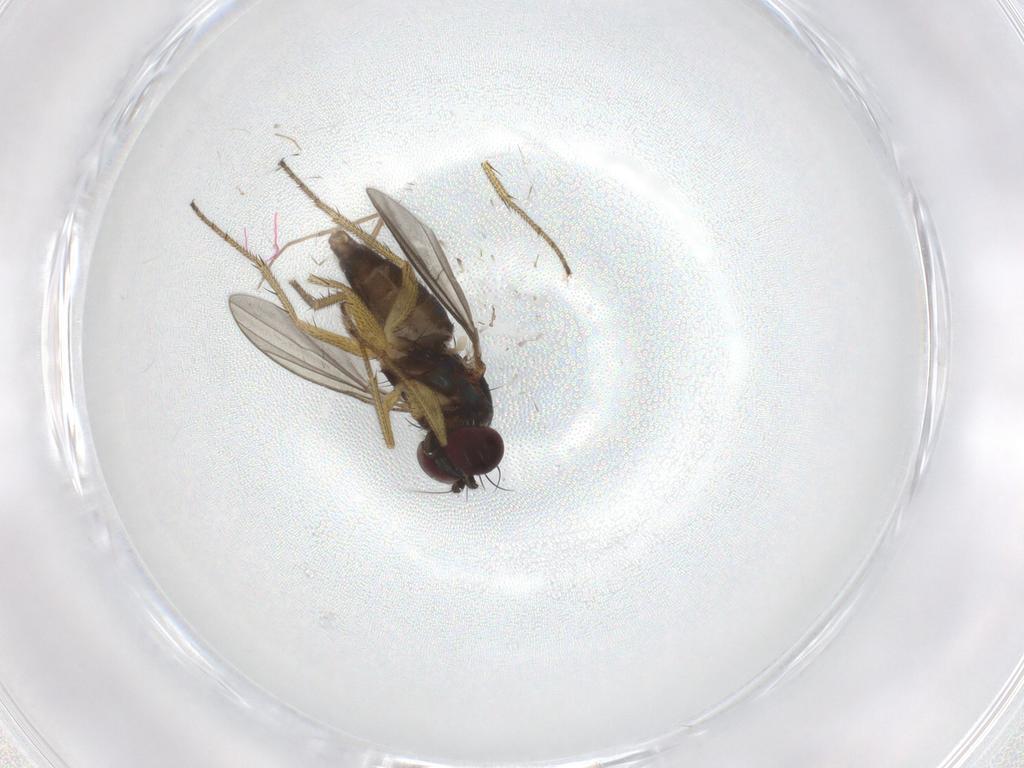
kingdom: Animalia
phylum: Arthropoda
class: Insecta
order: Diptera
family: Dolichopodidae
